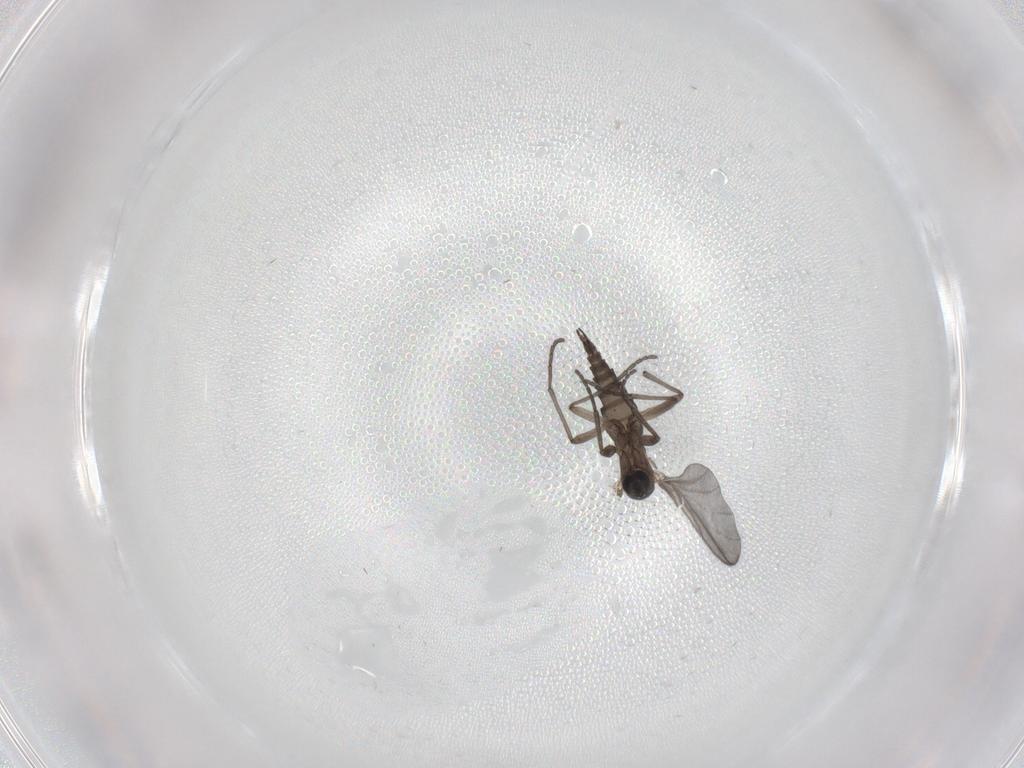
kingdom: Animalia
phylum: Arthropoda
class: Insecta
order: Diptera
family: Sciaridae
